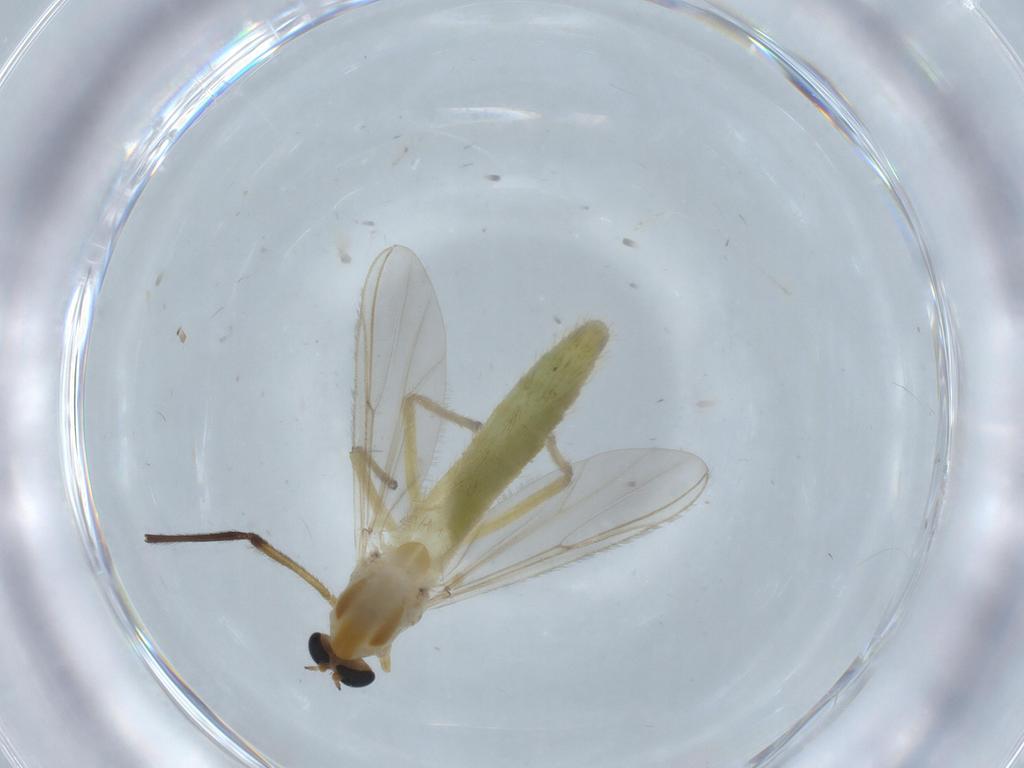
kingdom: Animalia
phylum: Arthropoda
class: Insecta
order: Diptera
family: Chironomidae
